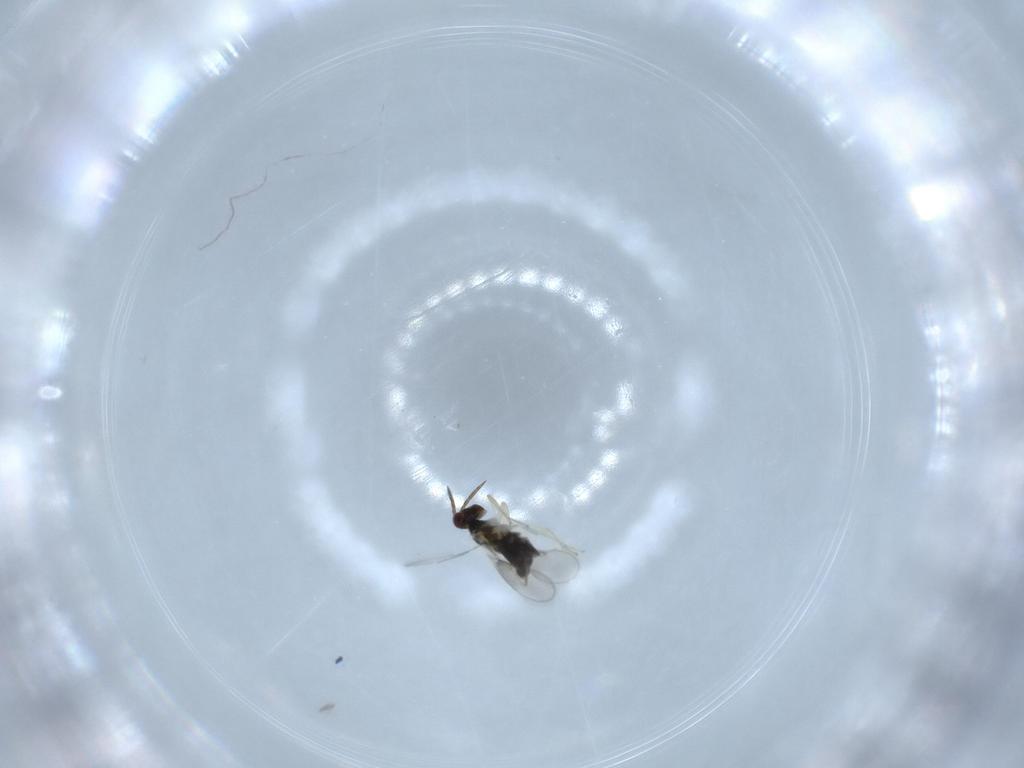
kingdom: Animalia
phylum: Arthropoda
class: Insecta
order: Hymenoptera
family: Aphelinidae
